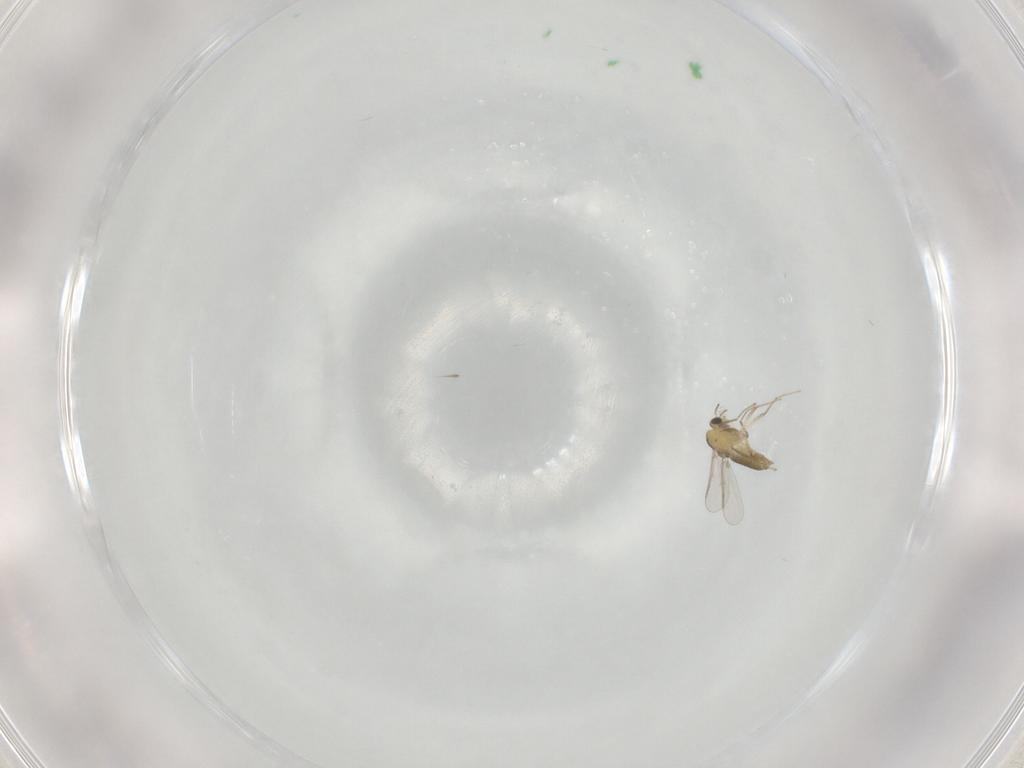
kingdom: Animalia
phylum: Arthropoda
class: Insecta
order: Diptera
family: Chironomidae
